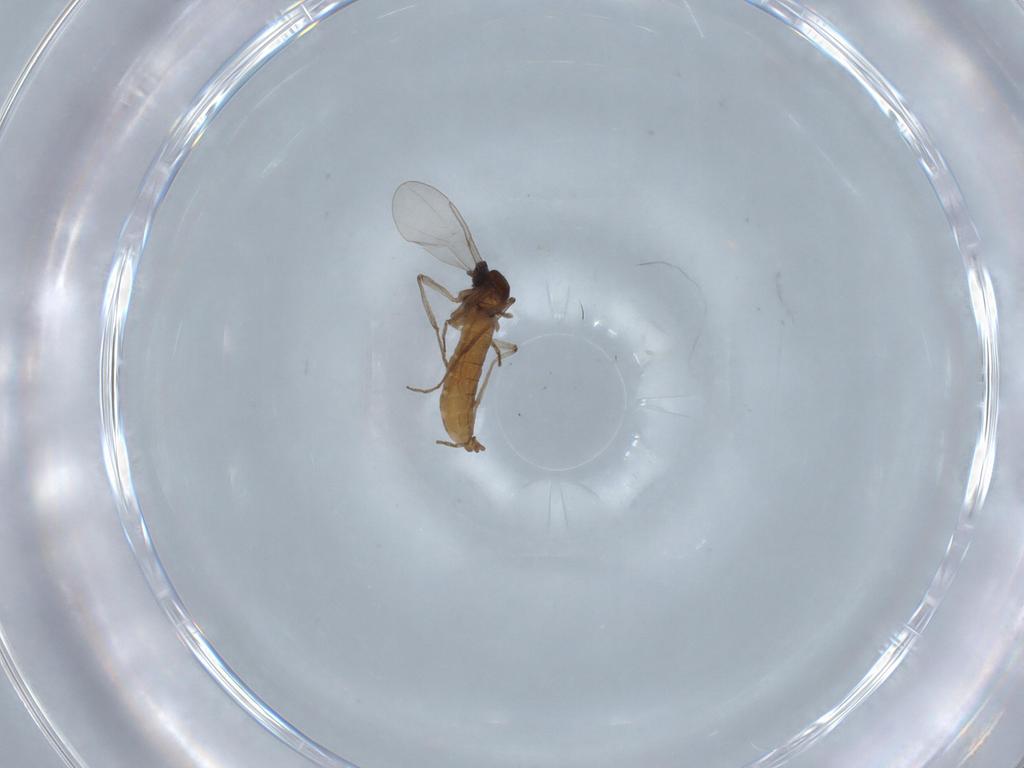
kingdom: Animalia
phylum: Arthropoda
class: Insecta
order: Diptera
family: Cecidomyiidae
